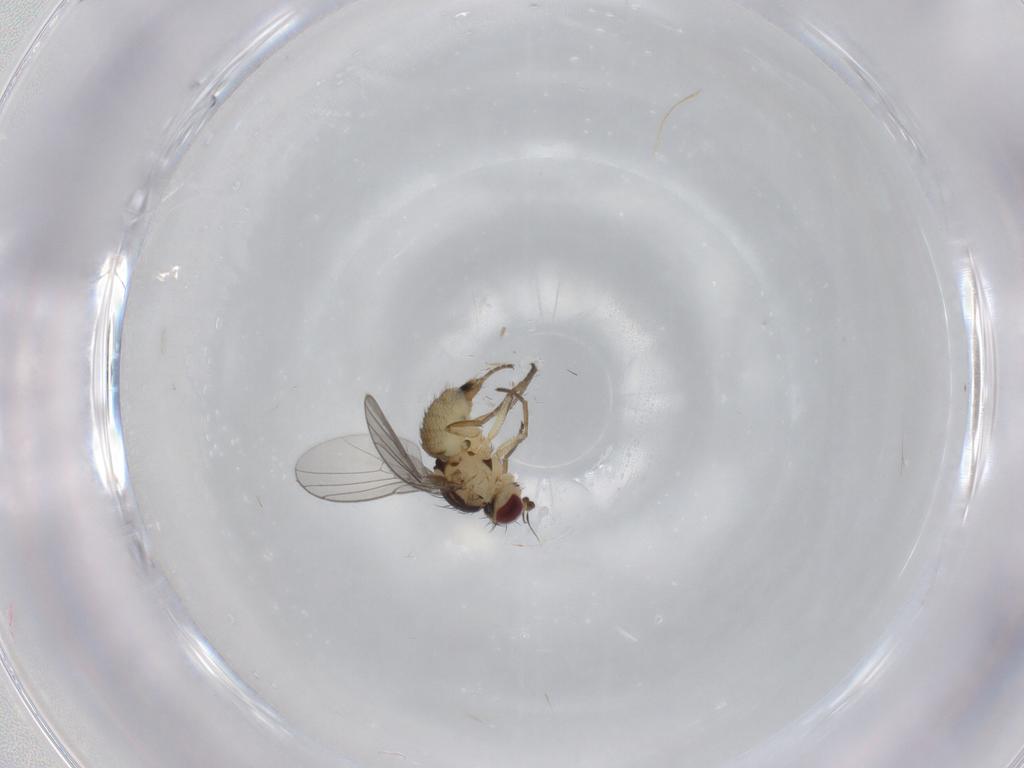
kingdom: Animalia
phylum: Arthropoda
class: Insecta
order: Diptera
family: Agromyzidae
